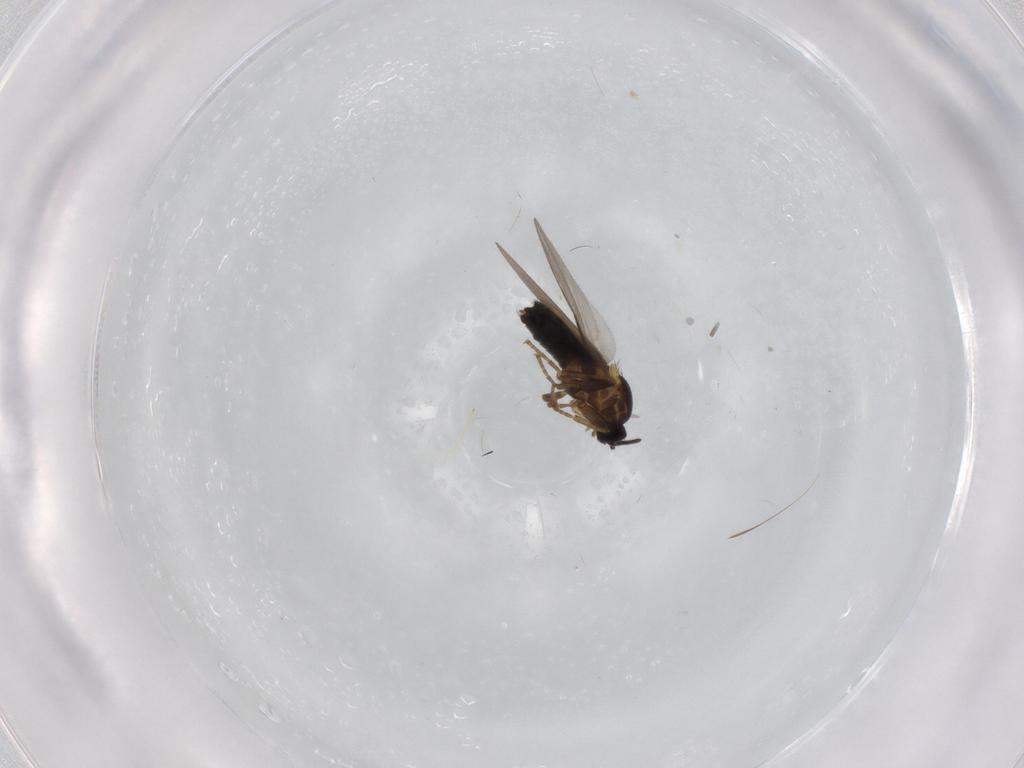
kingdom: Animalia
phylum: Arthropoda
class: Insecta
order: Diptera
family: Scatopsidae
